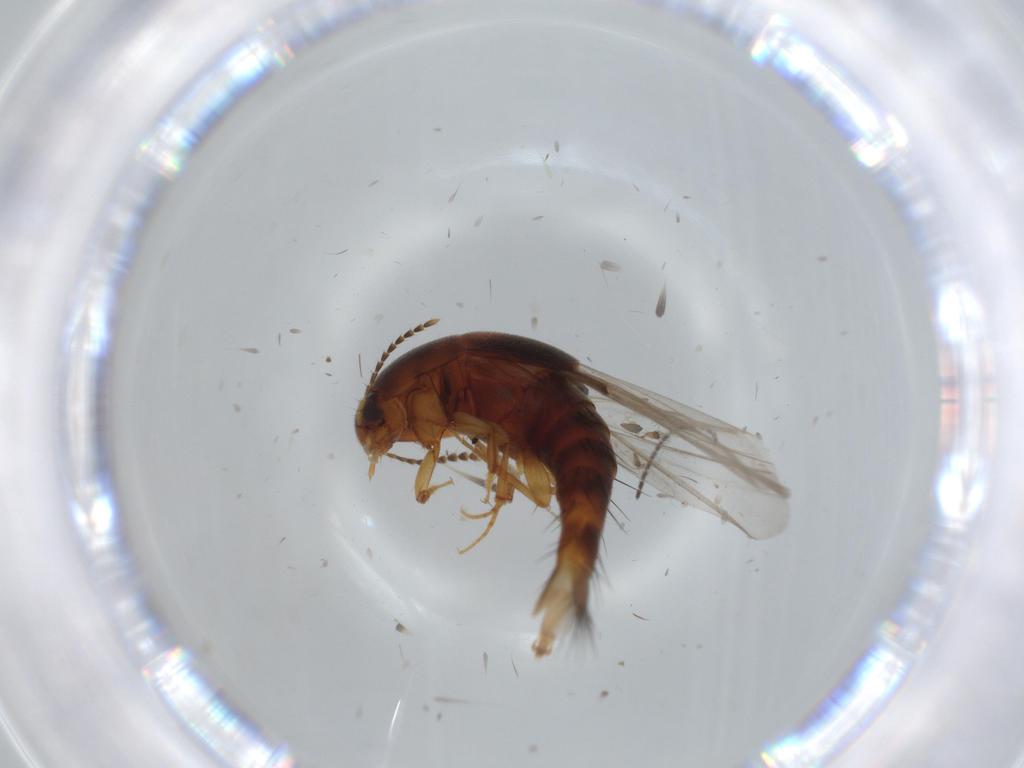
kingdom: Animalia
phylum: Arthropoda
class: Insecta
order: Coleoptera
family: Staphylinidae
